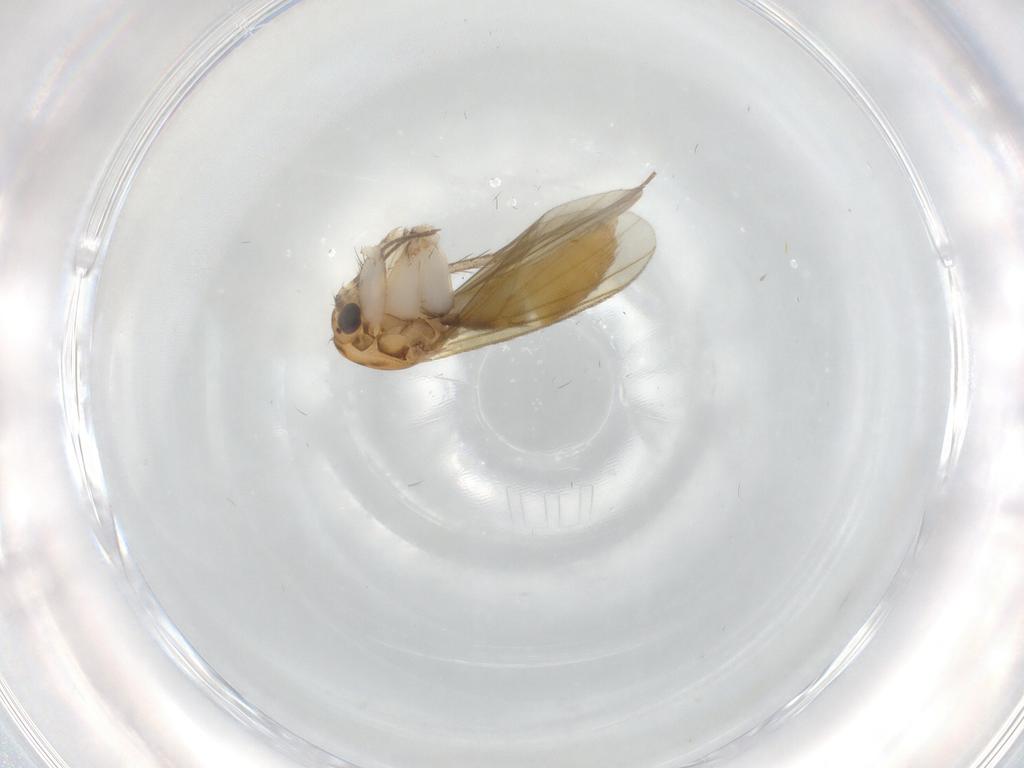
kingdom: Animalia
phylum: Arthropoda
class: Insecta
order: Diptera
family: Mycetophilidae
